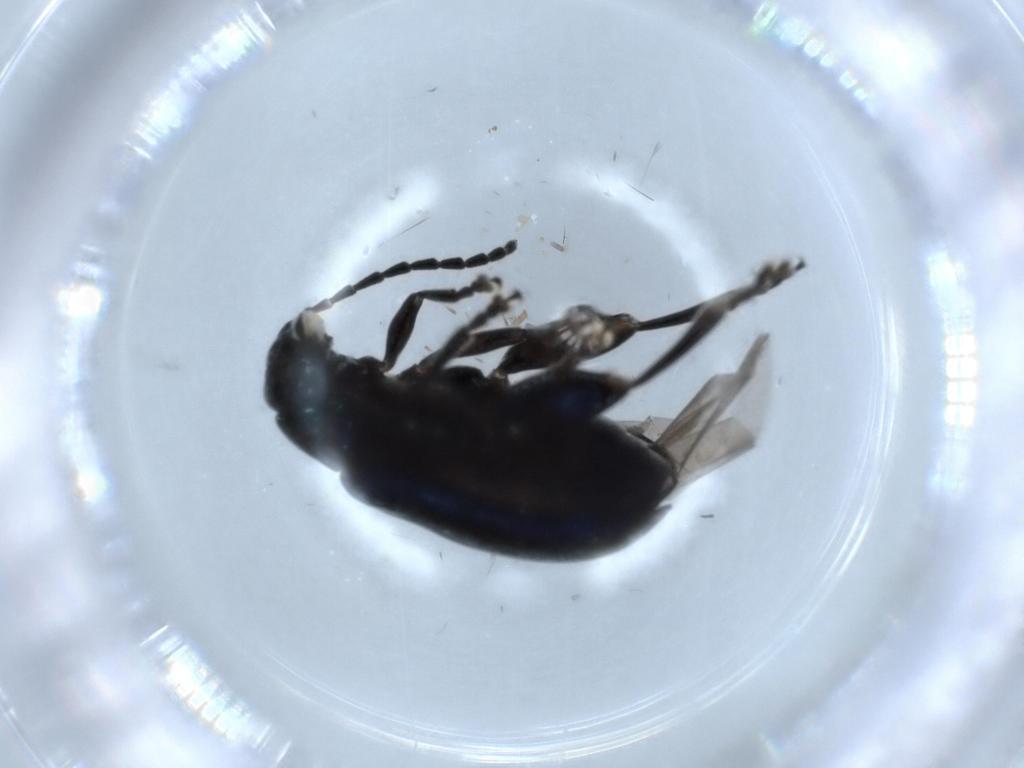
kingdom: Animalia
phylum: Arthropoda
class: Insecta
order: Coleoptera
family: Chrysomelidae
